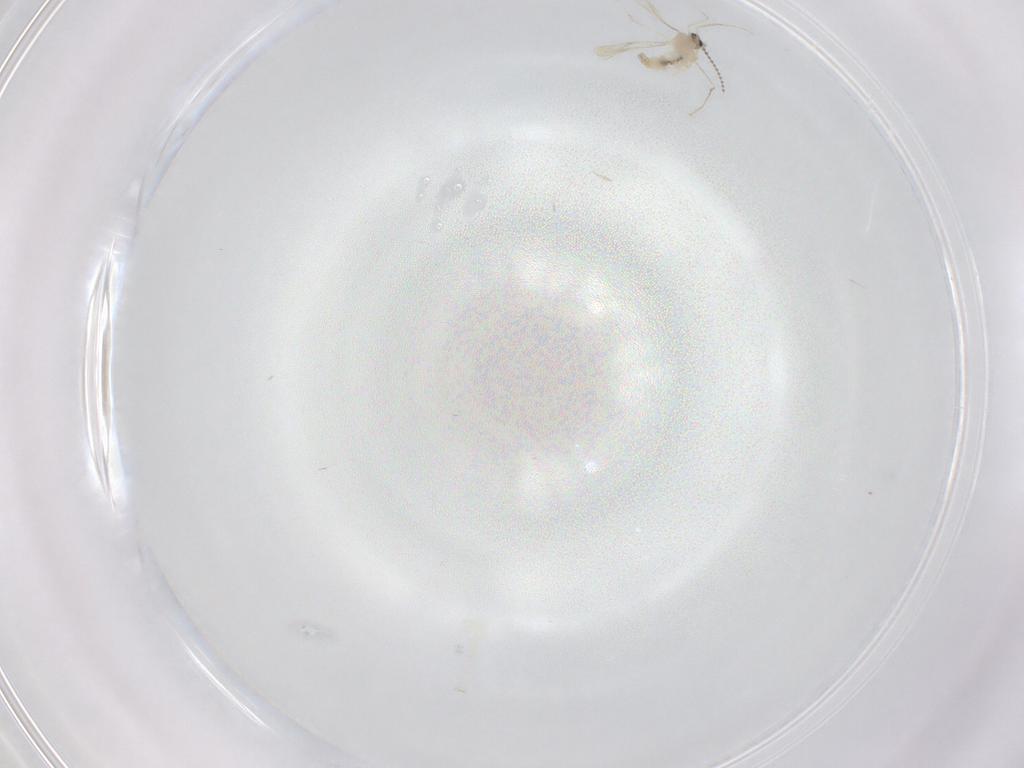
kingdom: Animalia
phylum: Arthropoda
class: Insecta
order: Diptera
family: Cecidomyiidae
